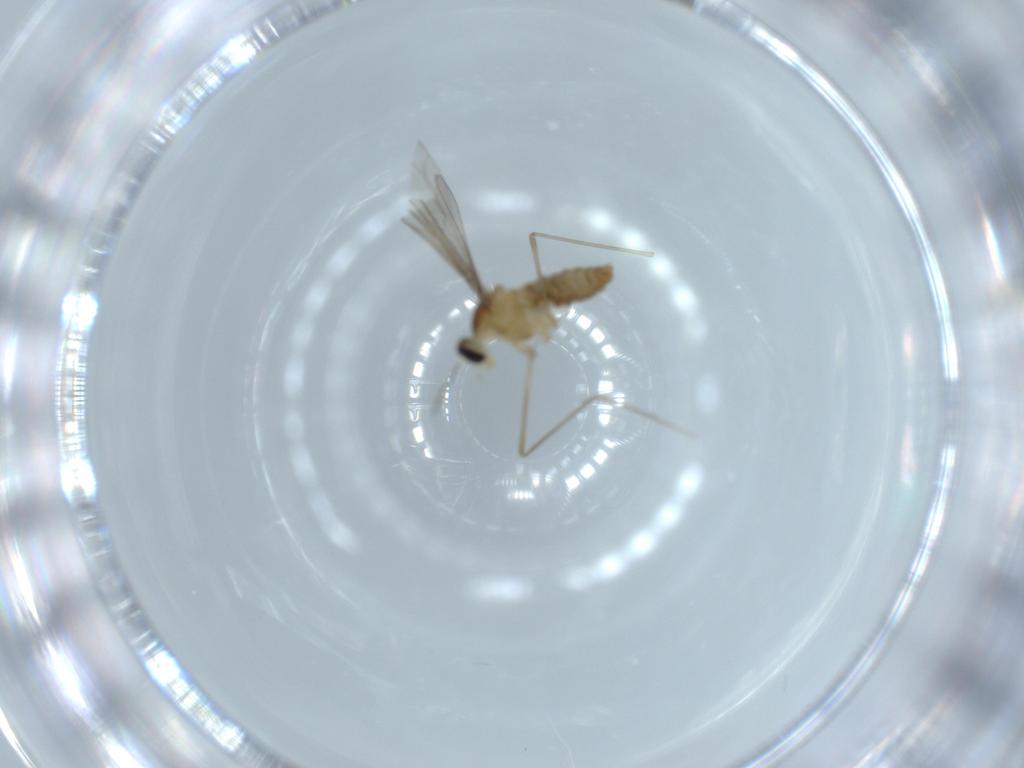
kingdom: Animalia
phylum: Arthropoda
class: Insecta
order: Diptera
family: Cecidomyiidae
